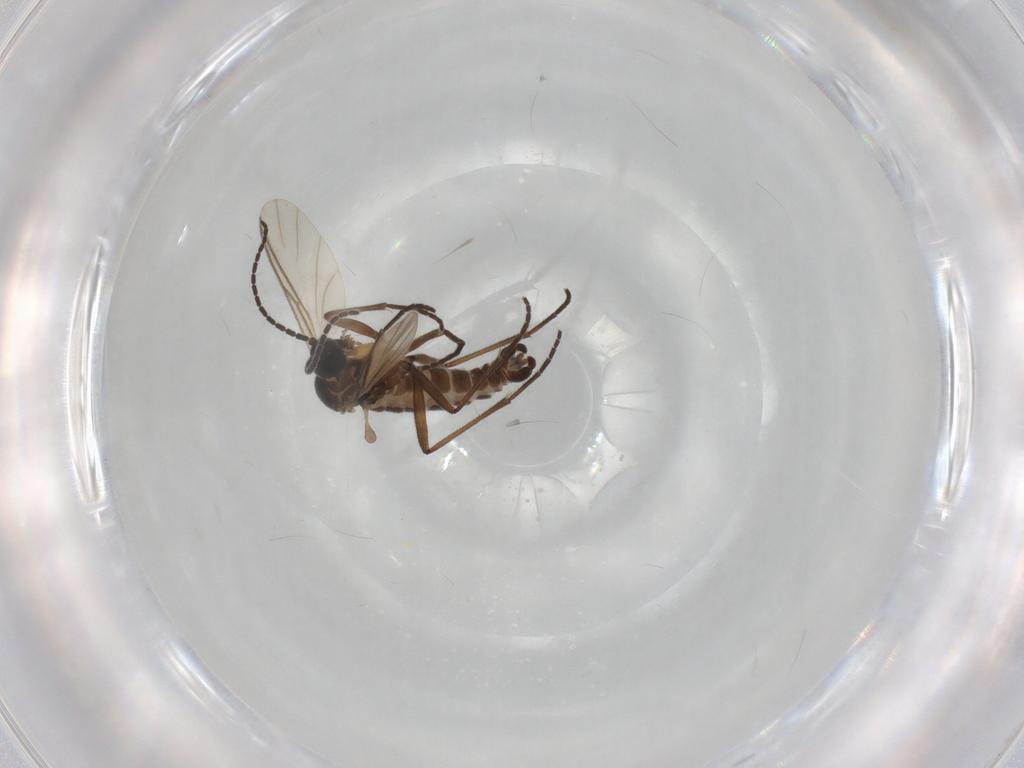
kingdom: Animalia
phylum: Arthropoda
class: Insecta
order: Diptera
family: Sciaridae
